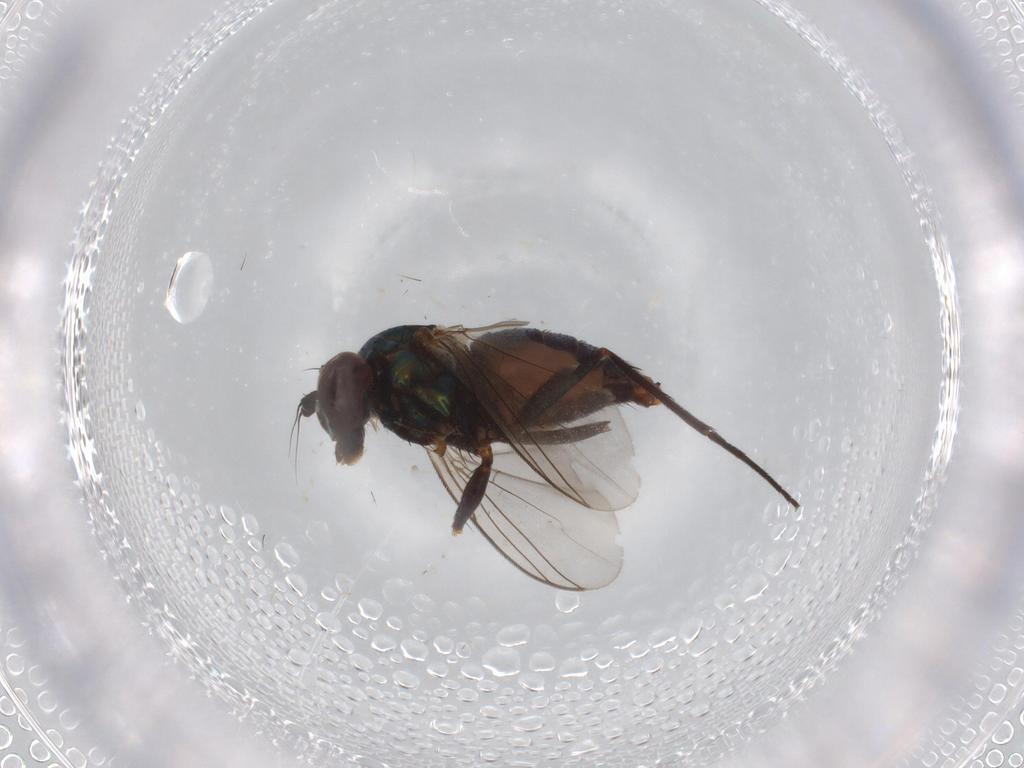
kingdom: Animalia
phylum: Arthropoda
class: Insecta
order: Diptera
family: Dolichopodidae
